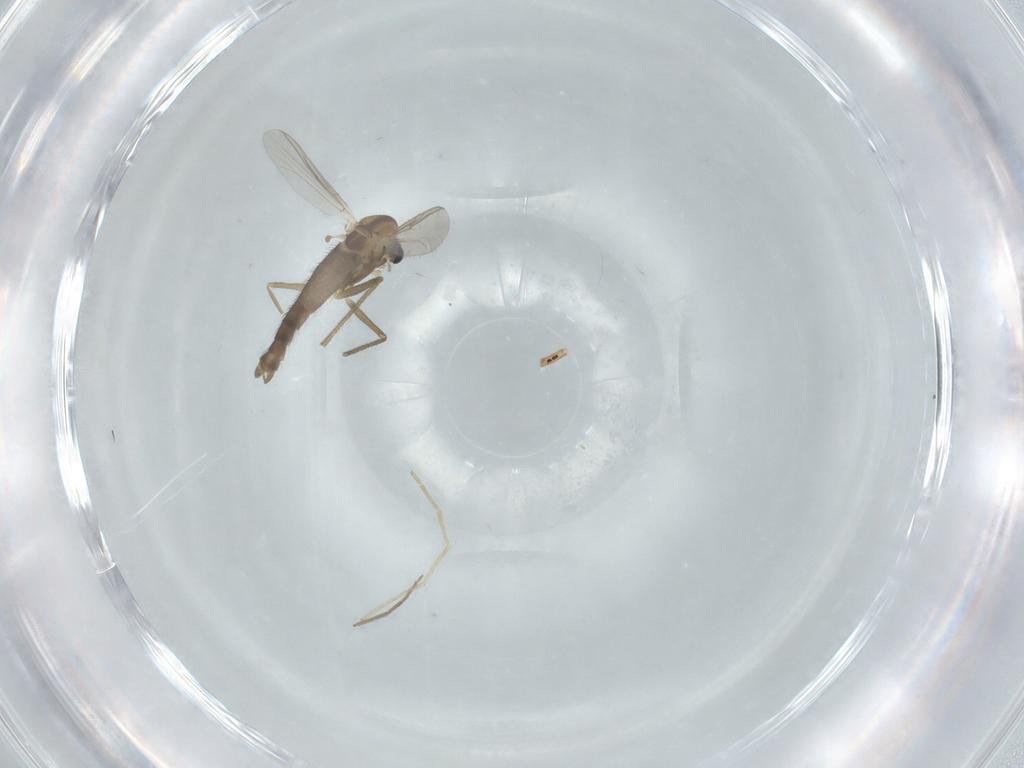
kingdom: Animalia
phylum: Arthropoda
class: Insecta
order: Diptera
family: Chironomidae
